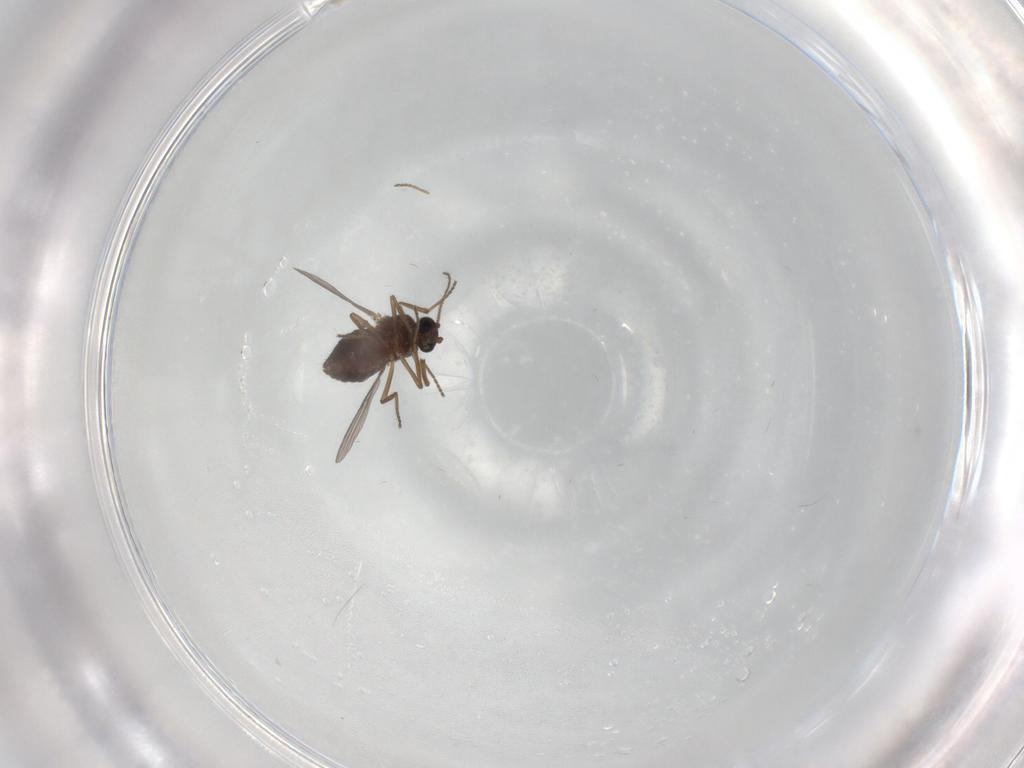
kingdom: Animalia
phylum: Arthropoda
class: Insecta
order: Diptera
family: Ceratopogonidae
